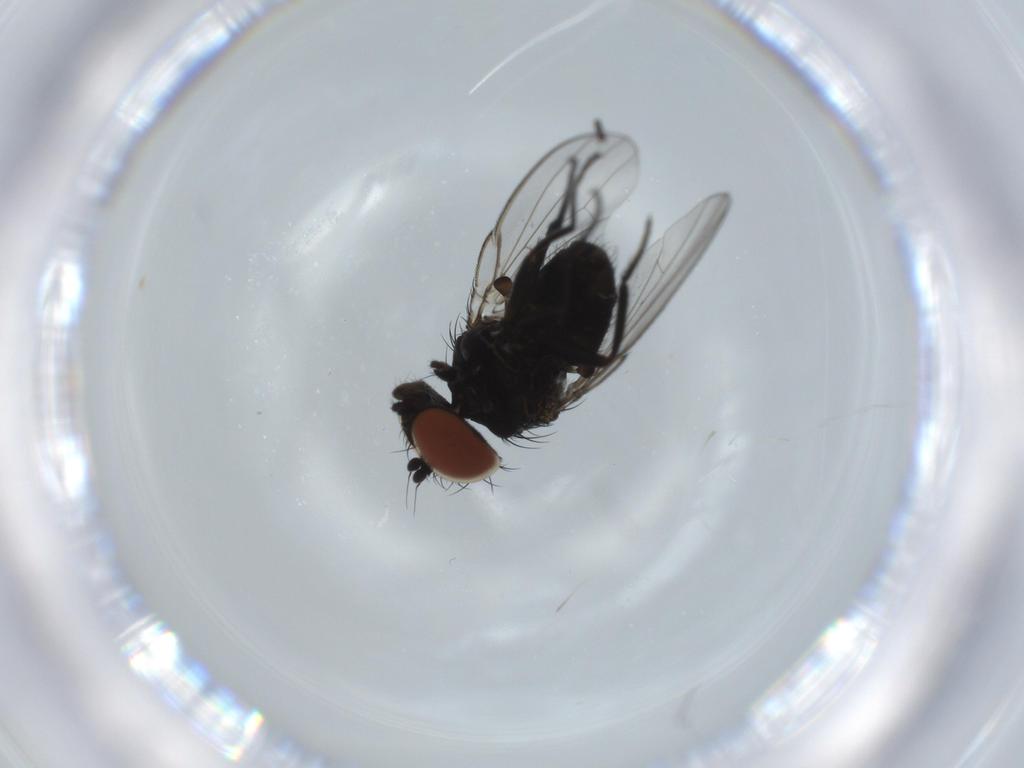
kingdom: Animalia
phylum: Arthropoda
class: Insecta
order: Diptera
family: Milichiidae
